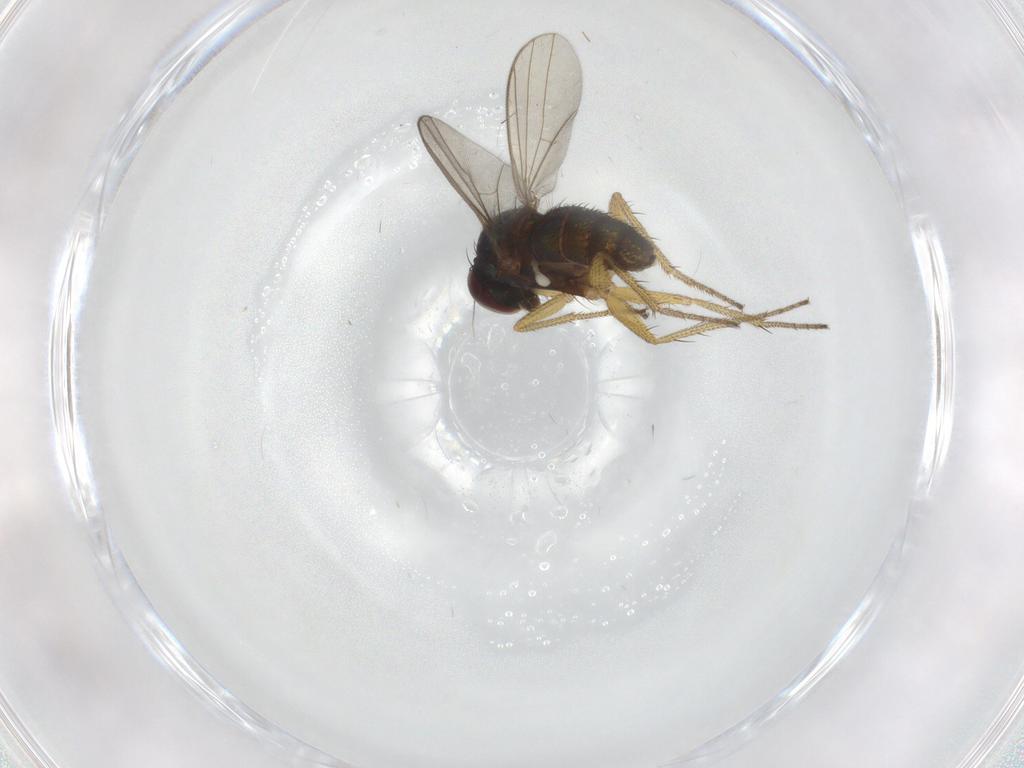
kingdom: Animalia
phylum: Arthropoda
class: Insecta
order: Diptera
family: Dolichopodidae
